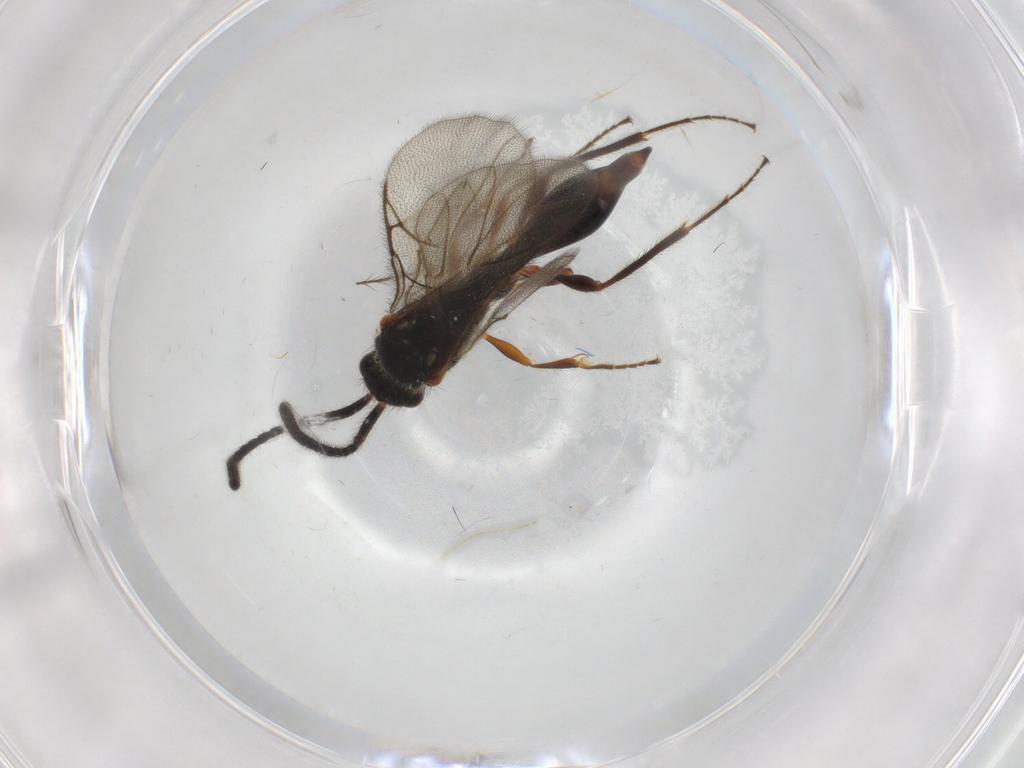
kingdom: Animalia
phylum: Arthropoda
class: Insecta
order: Hymenoptera
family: Diapriidae
